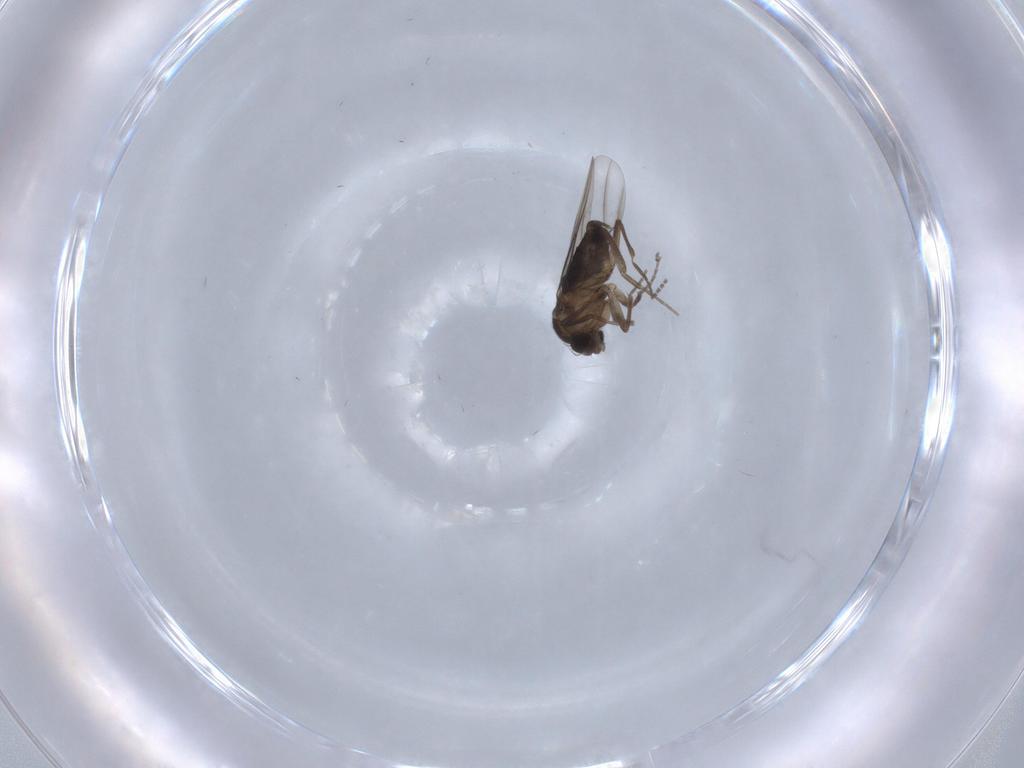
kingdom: Animalia
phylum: Arthropoda
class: Insecta
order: Diptera
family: Phoridae
